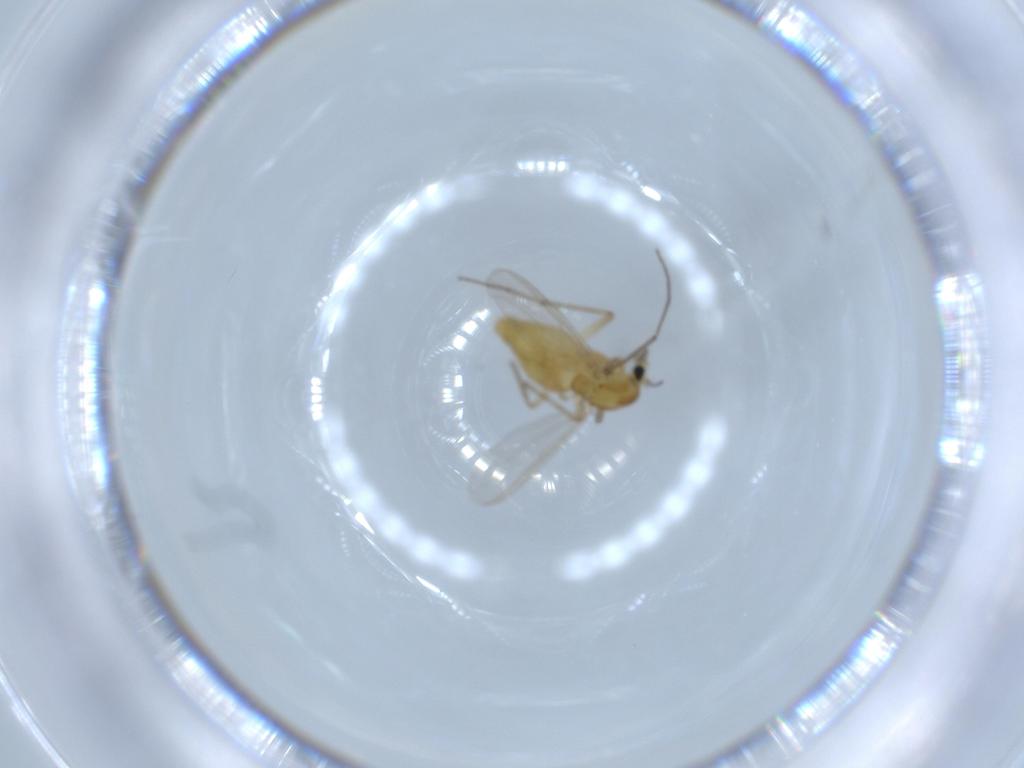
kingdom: Animalia
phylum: Arthropoda
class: Insecta
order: Diptera
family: Chironomidae
